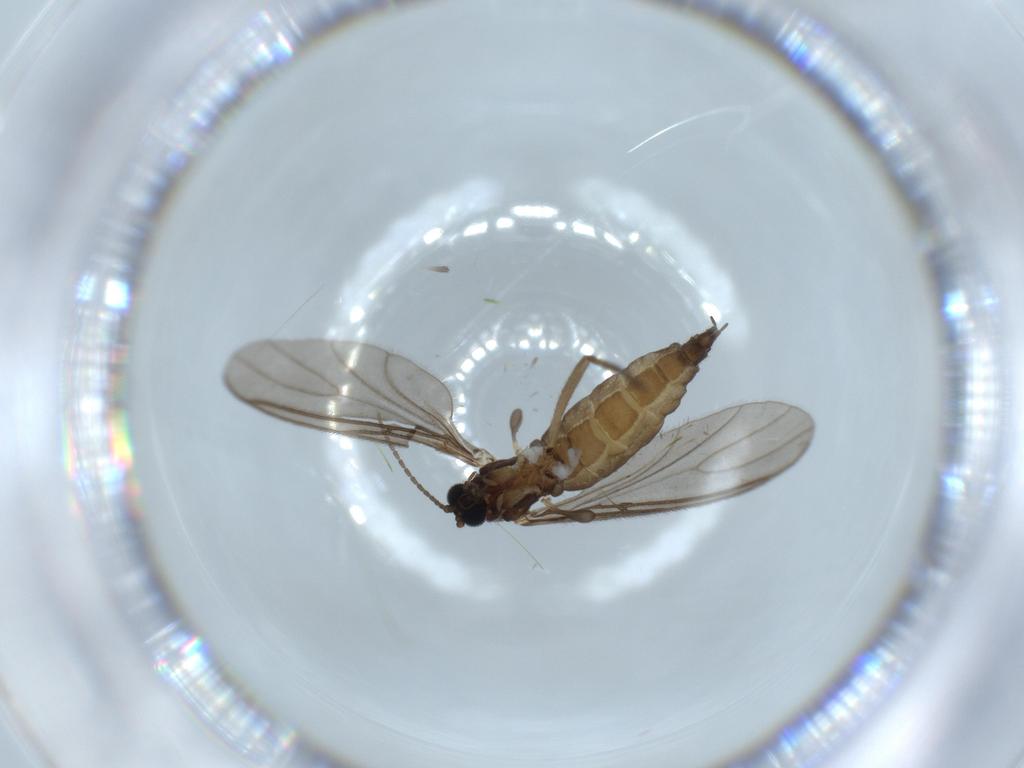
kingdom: Animalia
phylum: Arthropoda
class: Insecta
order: Diptera
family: Sciaridae
